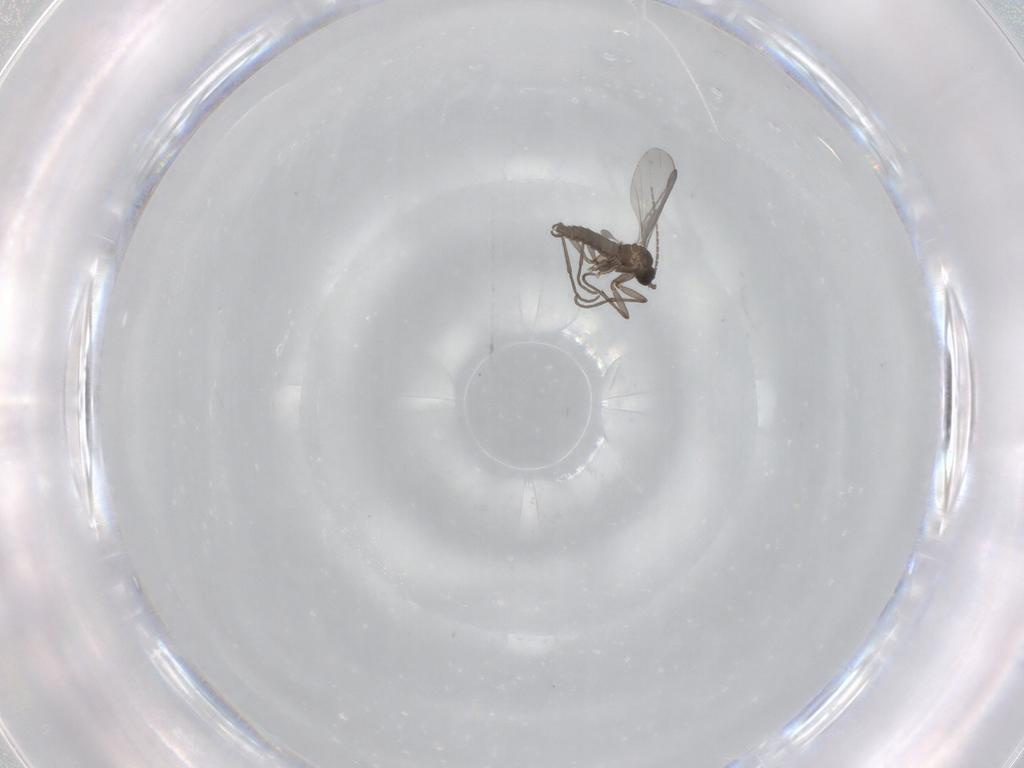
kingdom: Animalia
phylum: Arthropoda
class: Insecta
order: Diptera
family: Sciaridae
